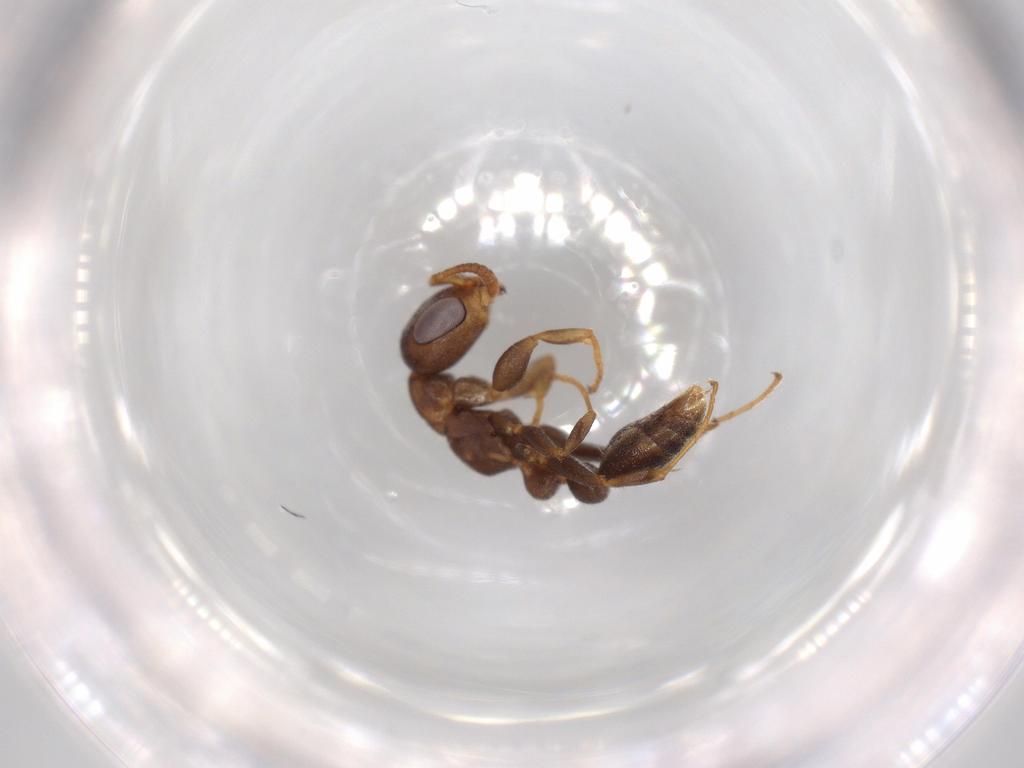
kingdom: Animalia
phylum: Arthropoda
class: Insecta
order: Hymenoptera
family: Formicidae
